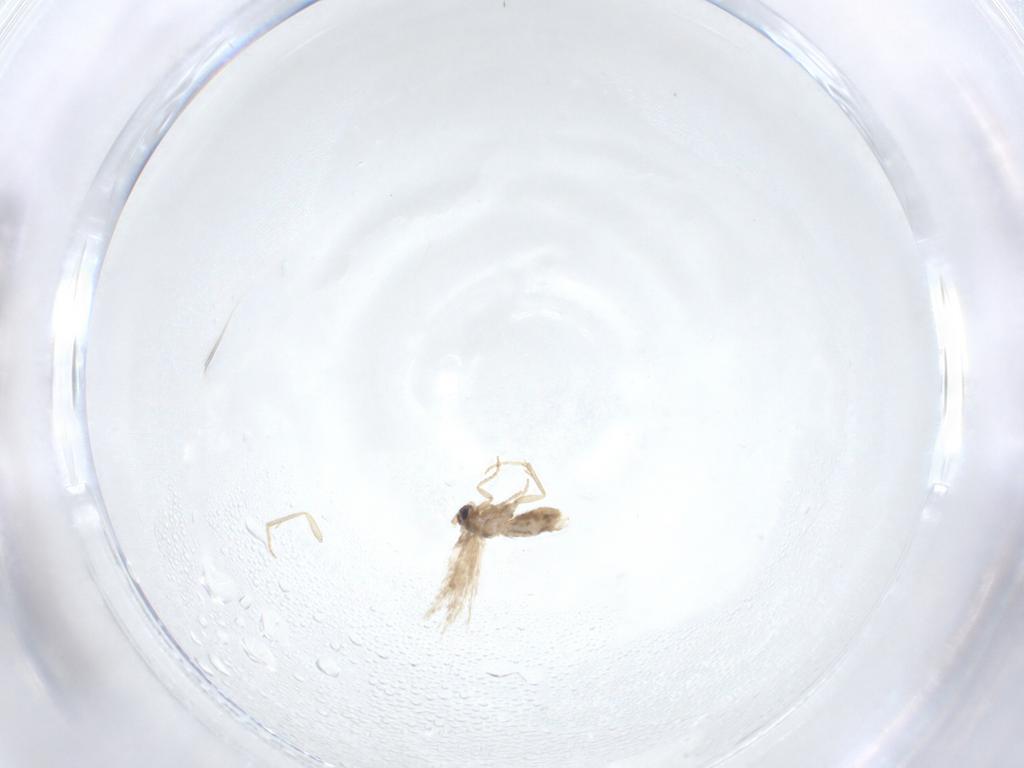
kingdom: Animalia
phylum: Arthropoda
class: Insecta
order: Lepidoptera
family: Nepticulidae
